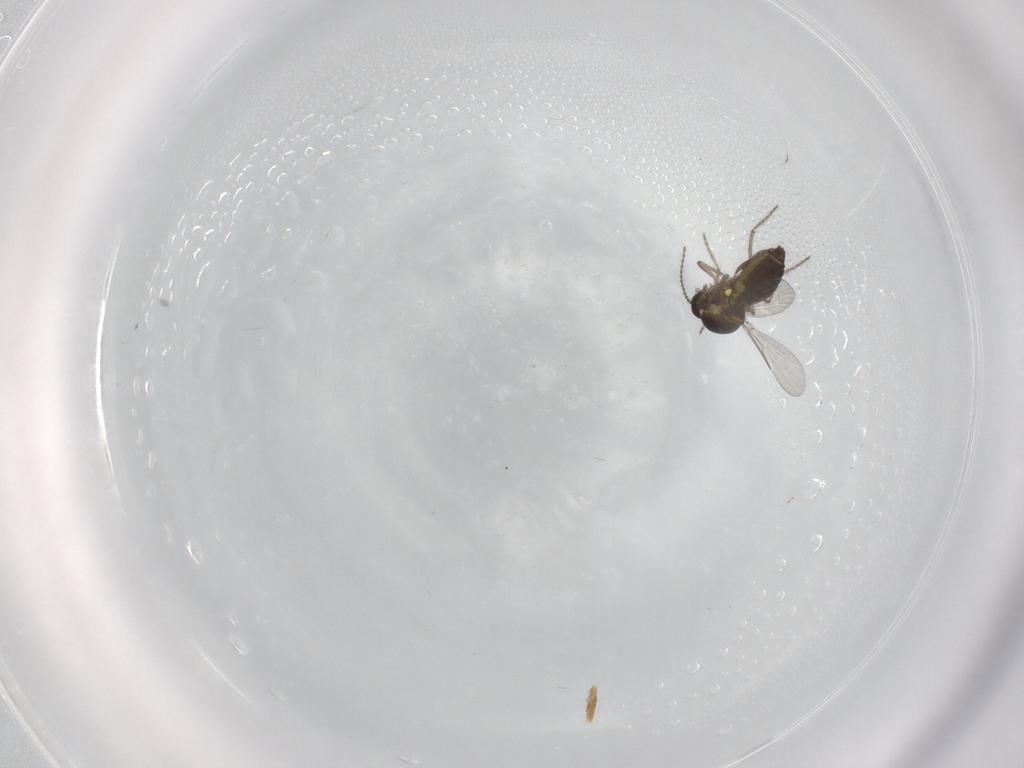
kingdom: Animalia
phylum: Arthropoda
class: Insecta
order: Diptera
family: Ceratopogonidae
